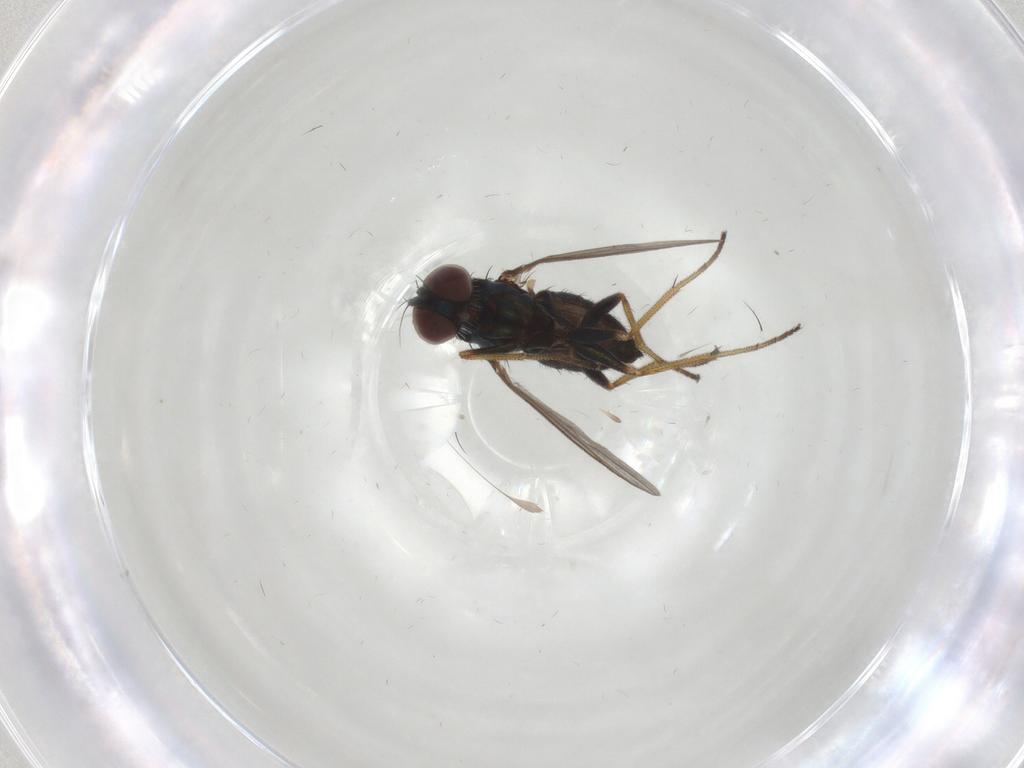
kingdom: Animalia
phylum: Arthropoda
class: Insecta
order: Diptera
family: Dolichopodidae
